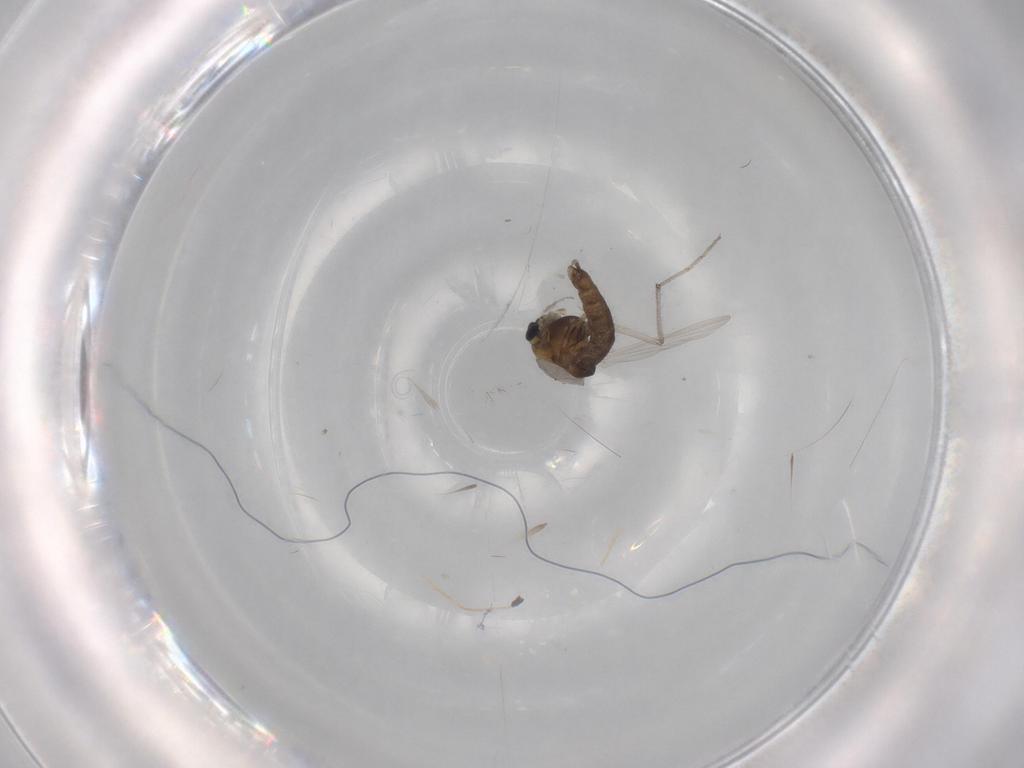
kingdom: Animalia
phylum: Arthropoda
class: Insecta
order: Diptera
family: Chironomidae
